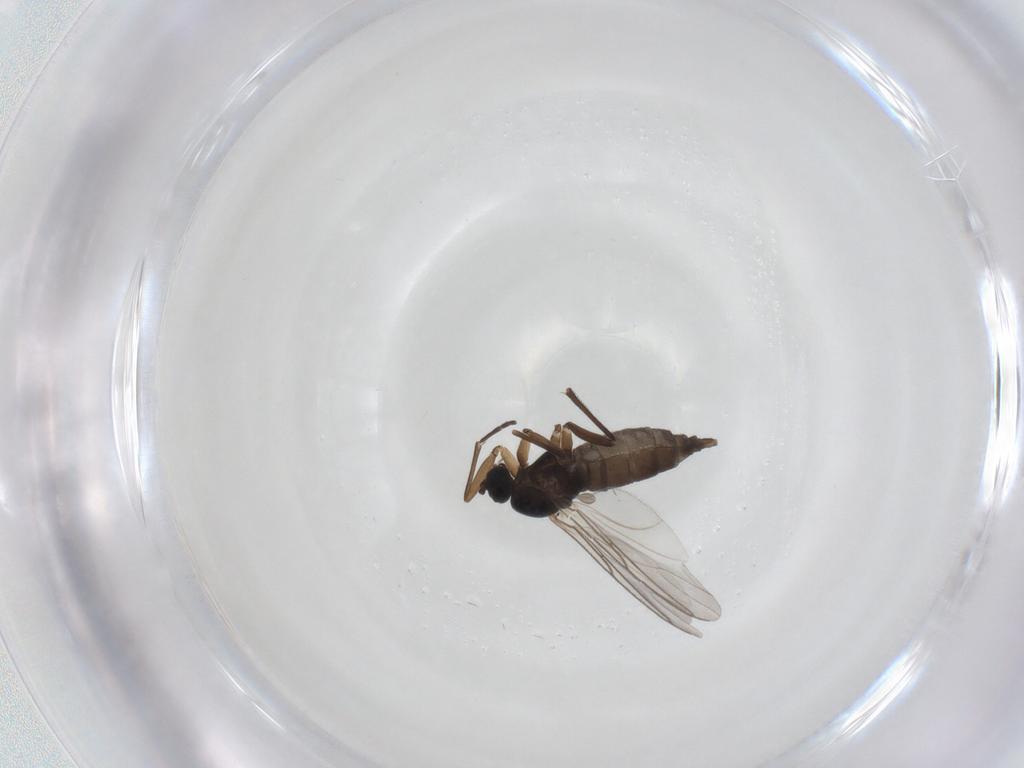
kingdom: Animalia
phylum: Arthropoda
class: Insecta
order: Diptera
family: Sciaridae
